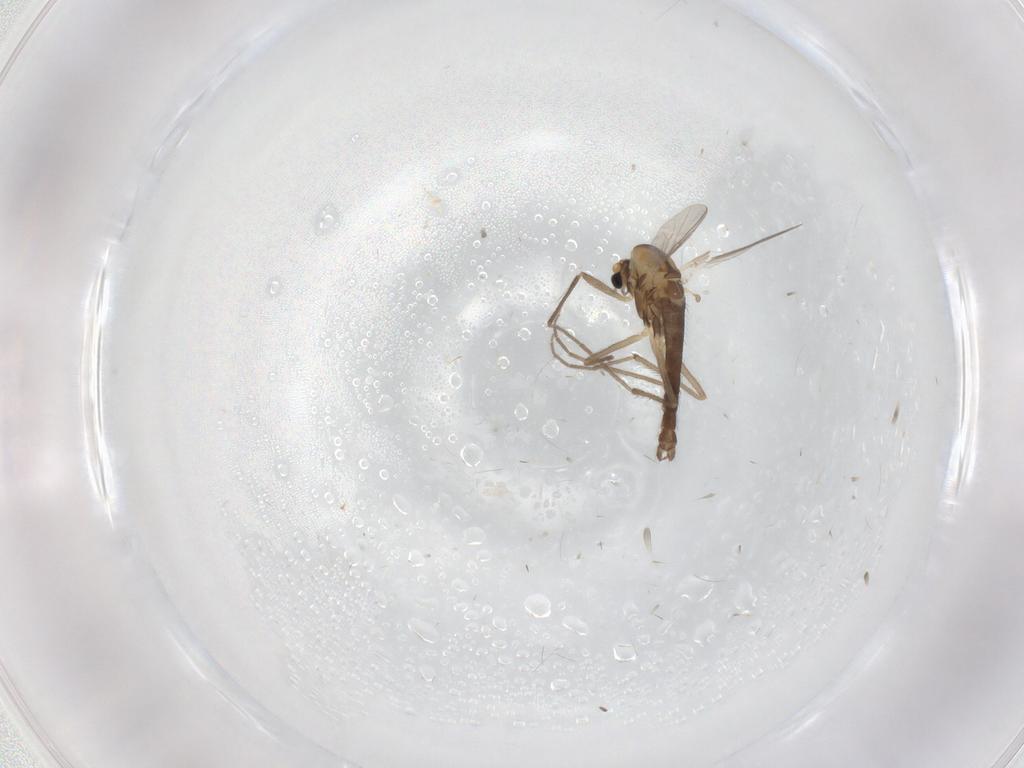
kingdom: Animalia
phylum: Arthropoda
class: Insecta
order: Diptera
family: Chironomidae
